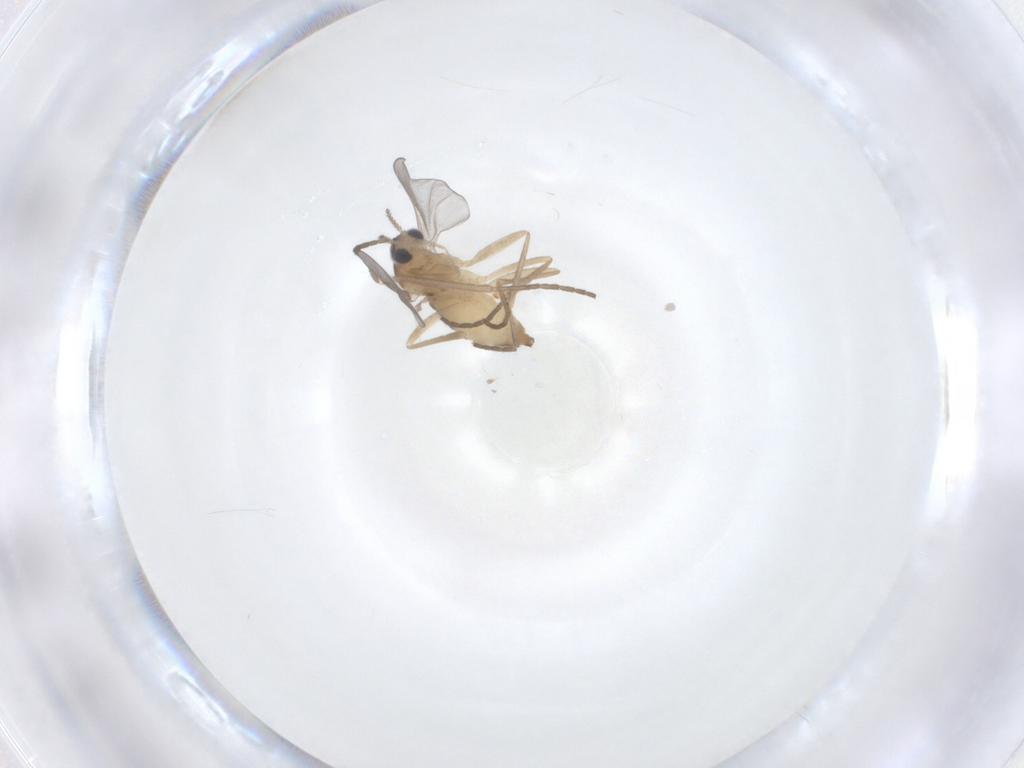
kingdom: Animalia
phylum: Arthropoda
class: Insecta
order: Diptera
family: Cecidomyiidae
